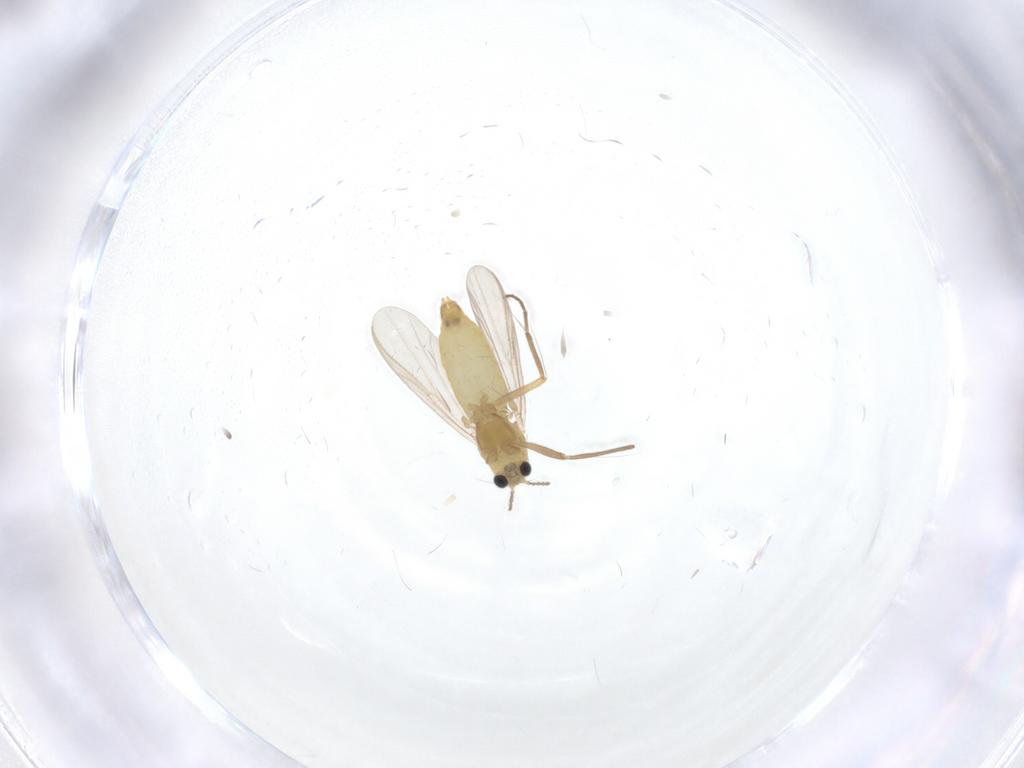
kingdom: Animalia
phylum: Arthropoda
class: Insecta
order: Diptera
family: Chironomidae
